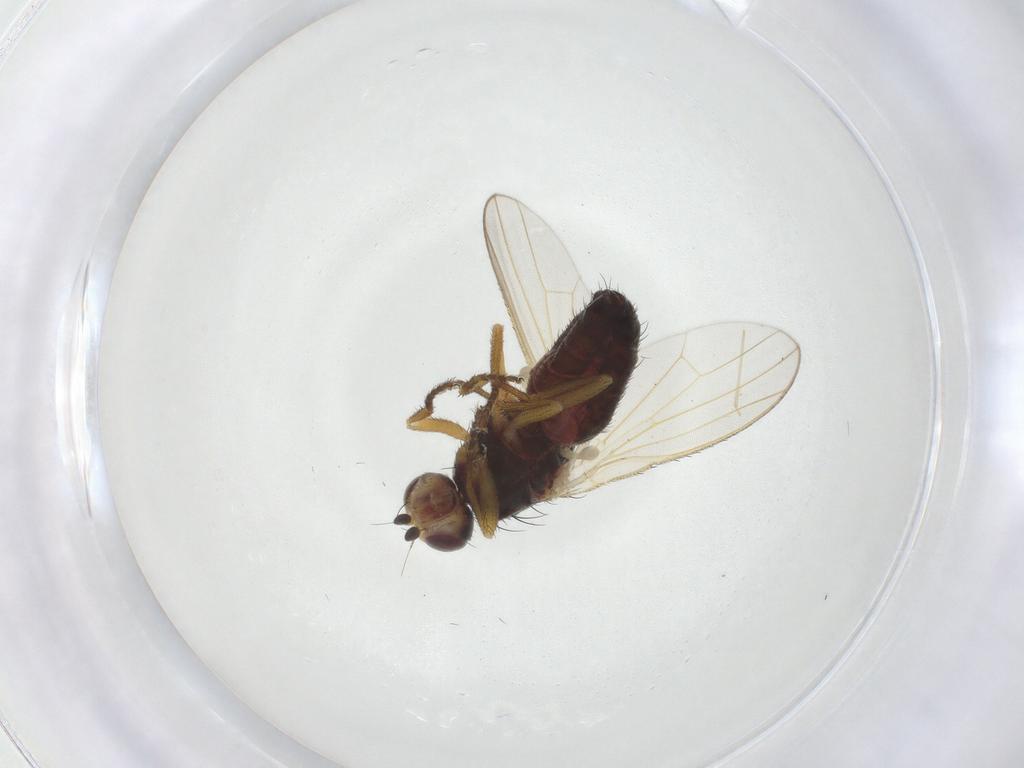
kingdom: Animalia
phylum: Arthropoda
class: Insecta
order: Diptera
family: Heleomyzidae
